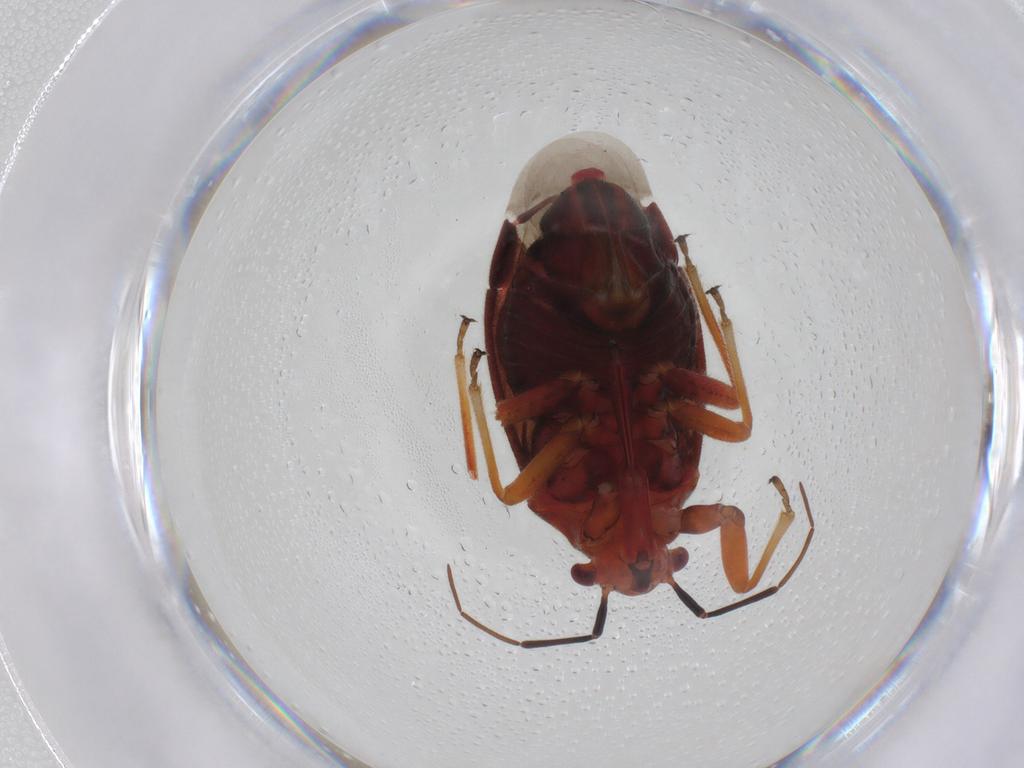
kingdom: Animalia
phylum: Arthropoda
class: Insecta
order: Hemiptera
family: Miridae
